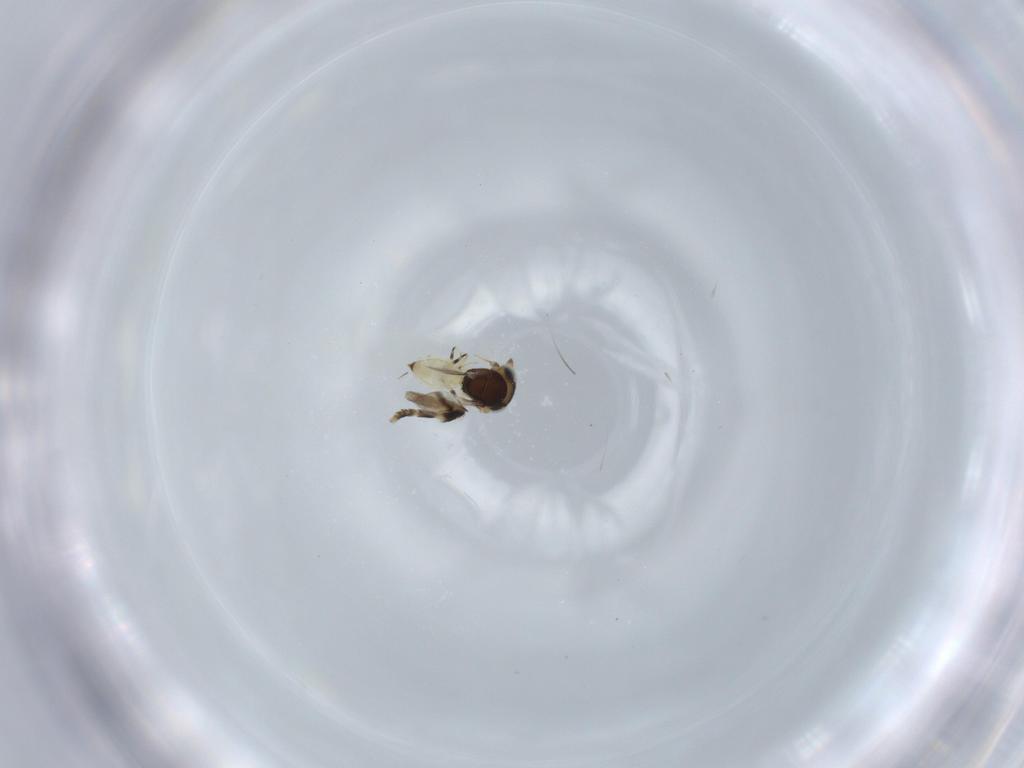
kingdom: Animalia
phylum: Arthropoda
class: Insecta
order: Hymenoptera
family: Scelionidae
